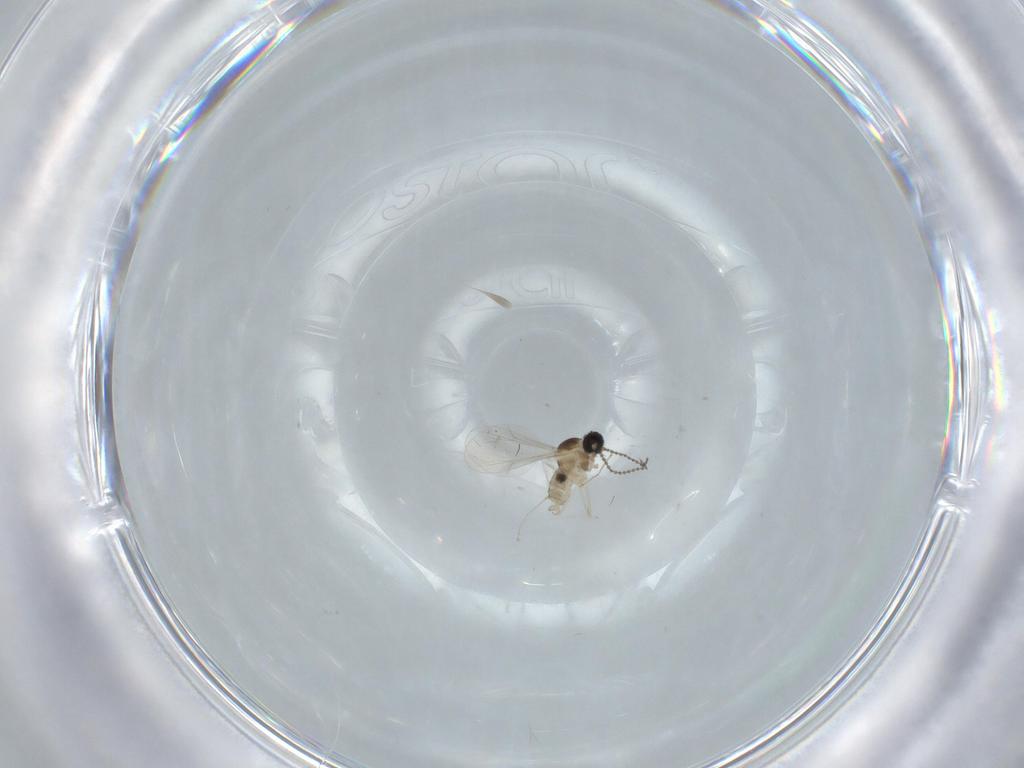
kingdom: Animalia
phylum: Arthropoda
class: Insecta
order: Diptera
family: Cecidomyiidae
